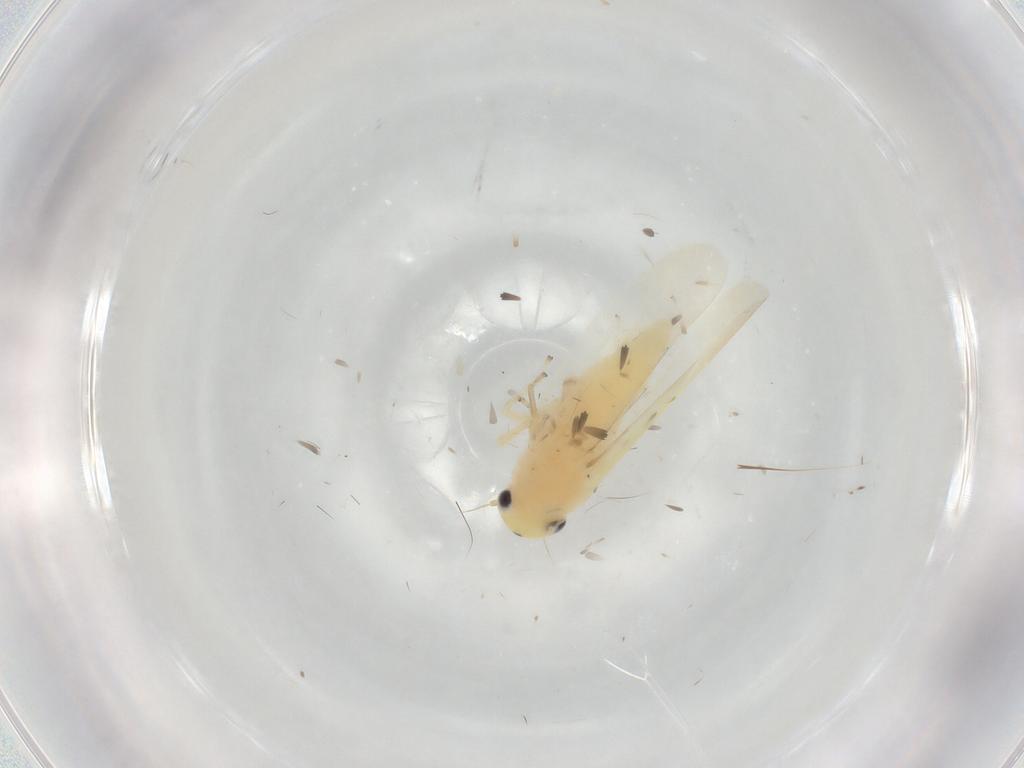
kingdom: Animalia
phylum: Arthropoda
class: Insecta
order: Hemiptera
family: Cicadellidae
